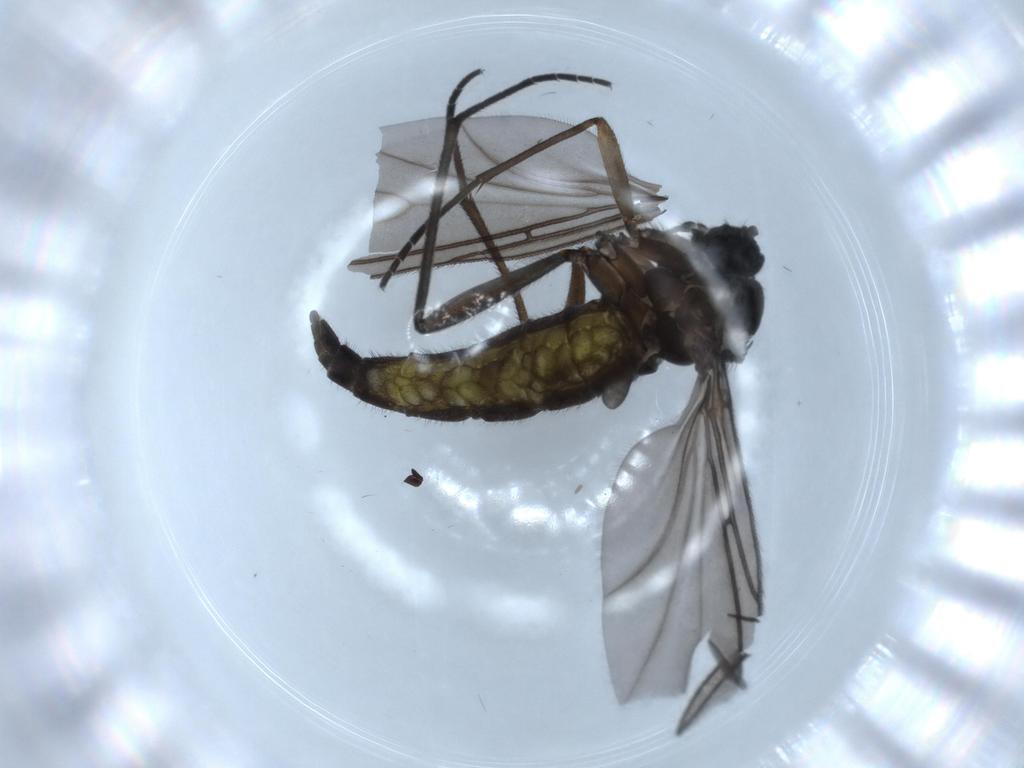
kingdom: Animalia
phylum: Arthropoda
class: Insecta
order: Diptera
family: Sciaridae
